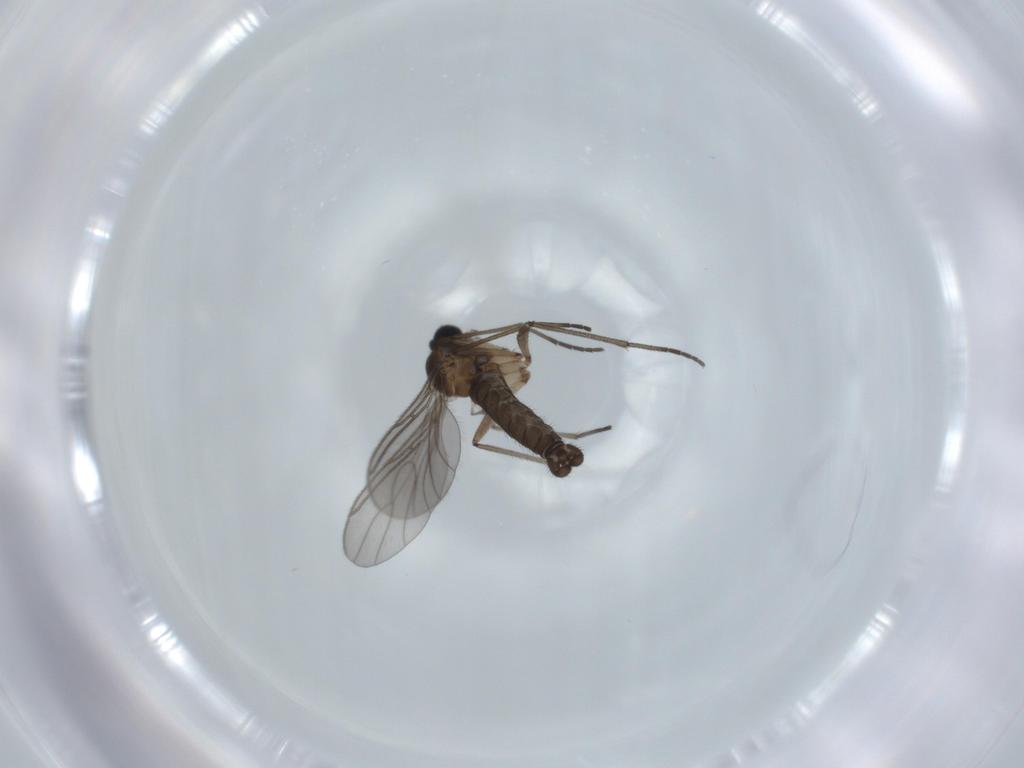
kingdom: Animalia
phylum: Arthropoda
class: Insecta
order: Diptera
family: Sciaridae
